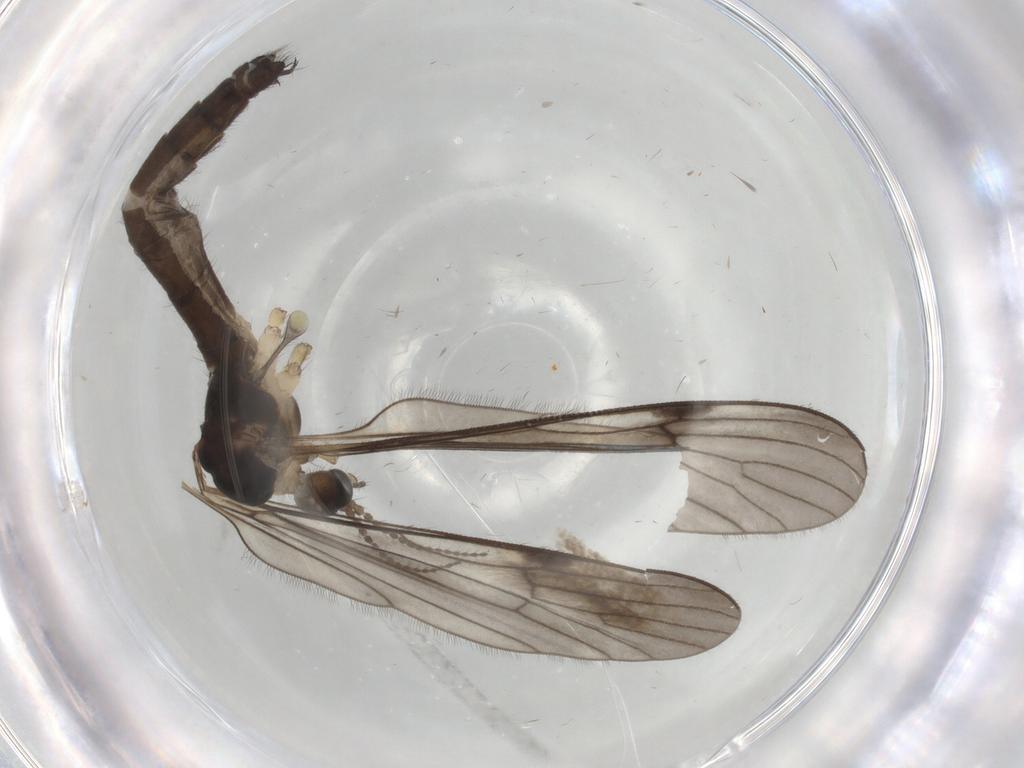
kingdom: Animalia
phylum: Arthropoda
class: Insecta
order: Diptera
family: Limoniidae
